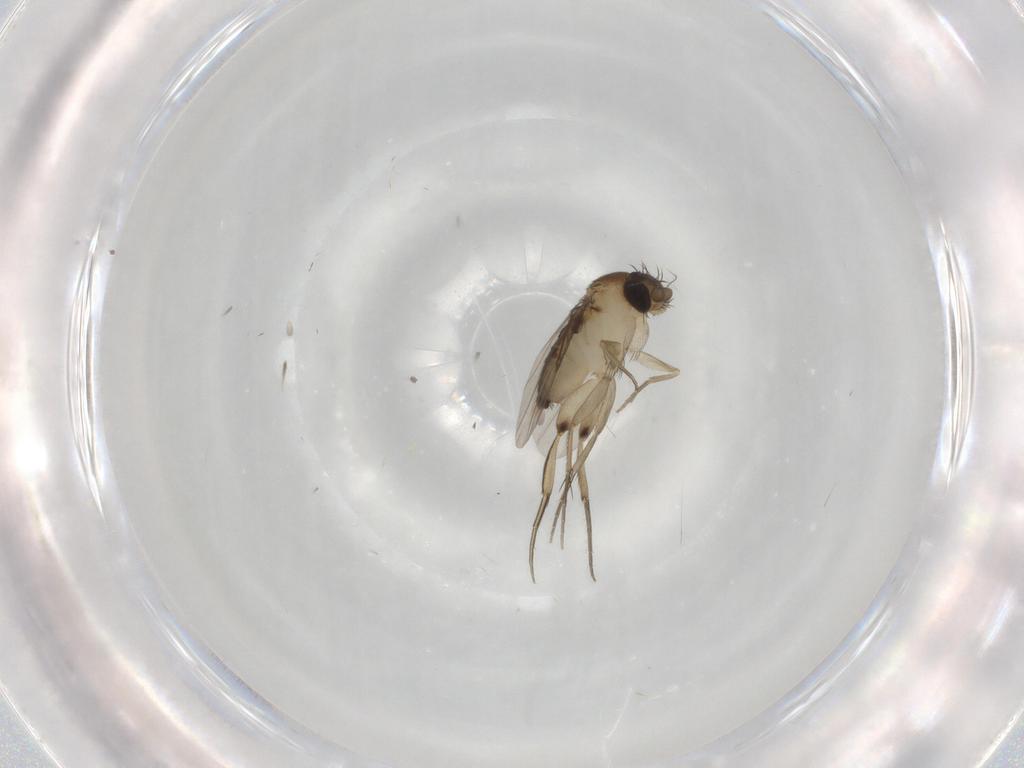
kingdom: Animalia
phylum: Arthropoda
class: Insecta
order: Diptera
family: Phoridae
